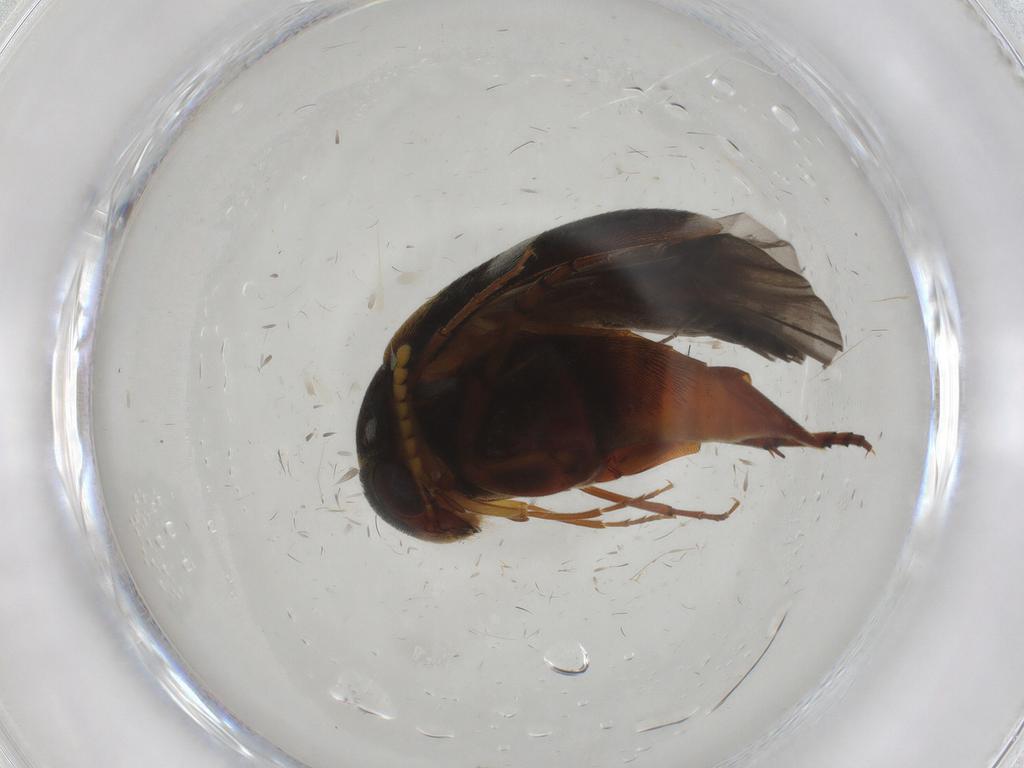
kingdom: Animalia
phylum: Arthropoda
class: Insecta
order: Coleoptera
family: Mordellidae
